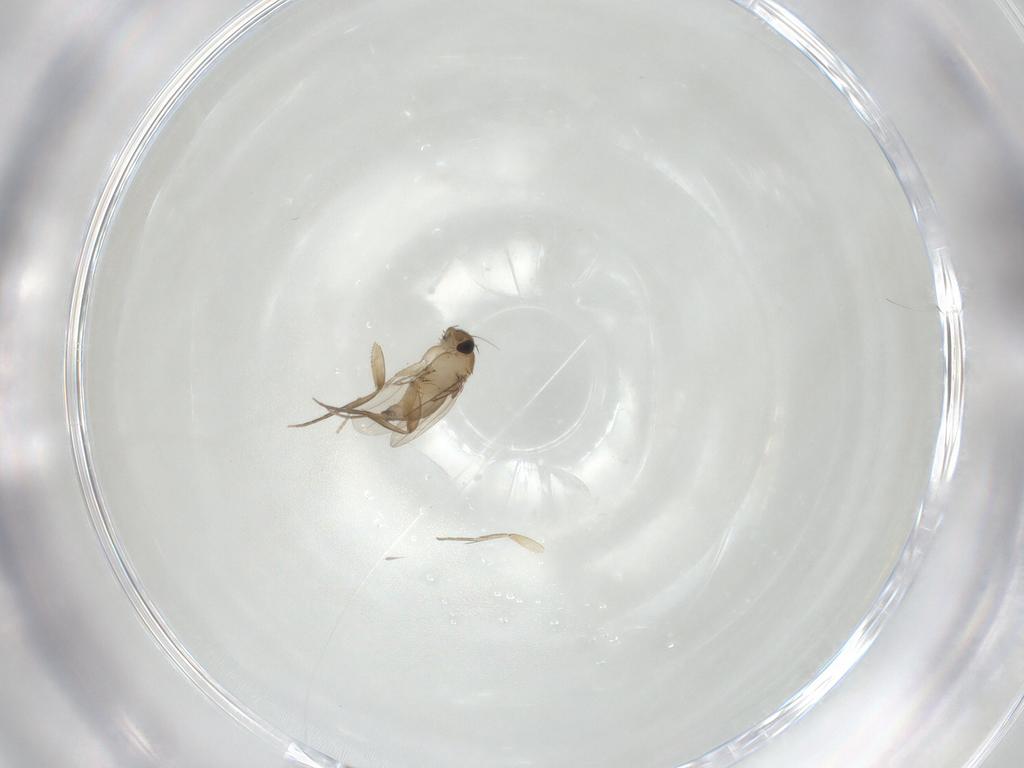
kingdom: Animalia
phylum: Arthropoda
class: Insecta
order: Diptera
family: Phoridae
